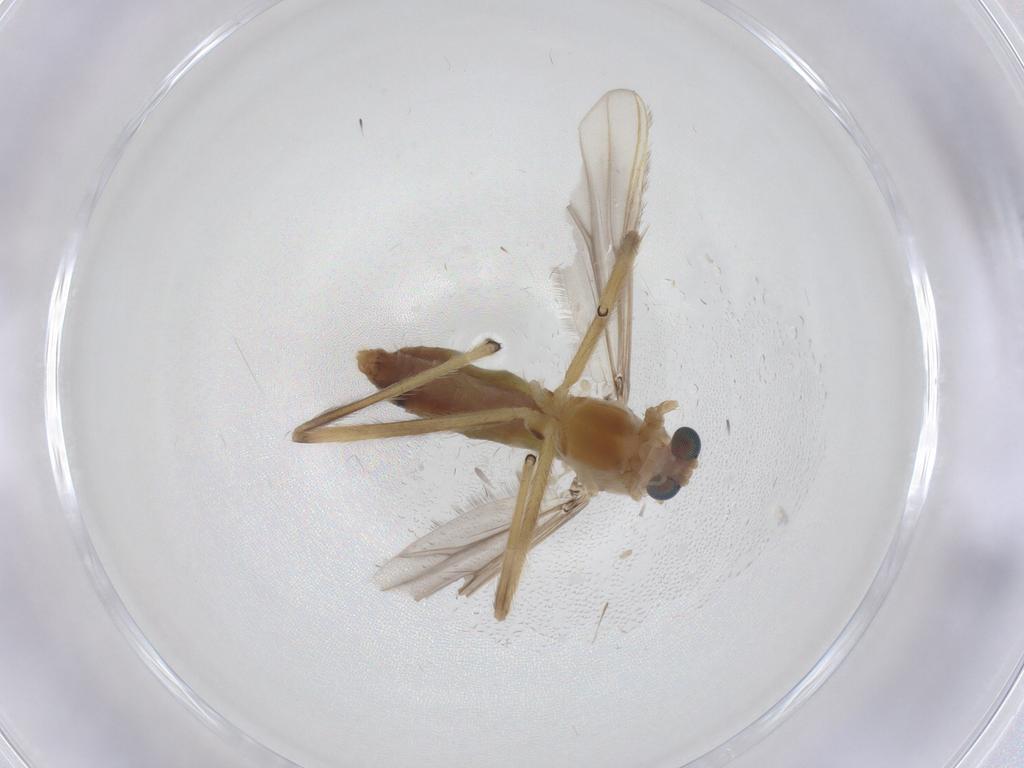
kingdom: Animalia
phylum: Arthropoda
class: Insecta
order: Diptera
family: Chironomidae
